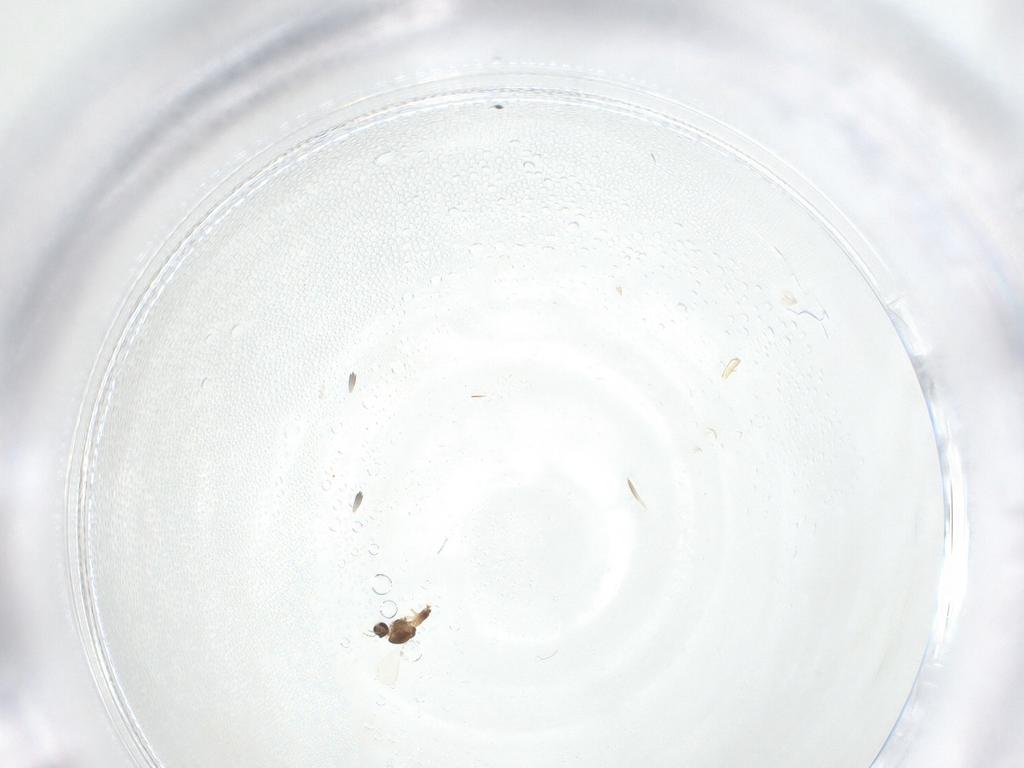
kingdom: Animalia
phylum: Arthropoda
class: Insecta
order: Diptera
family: Chironomidae
